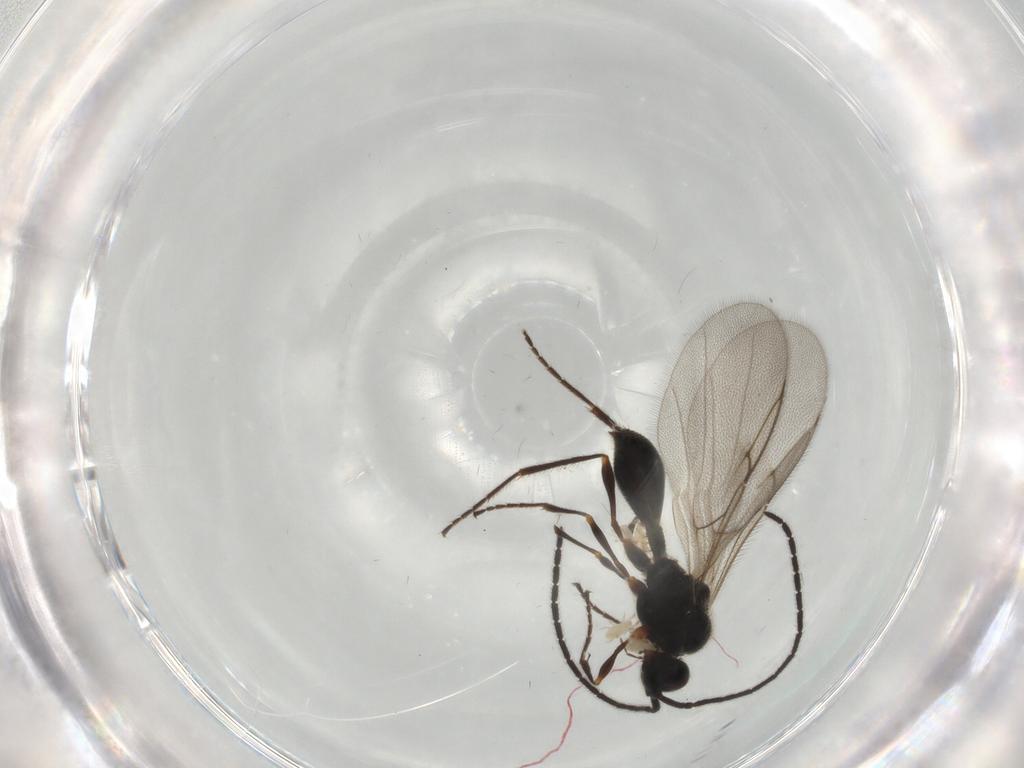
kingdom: Animalia
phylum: Arthropoda
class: Insecta
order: Hymenoptera
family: Diapriidae
